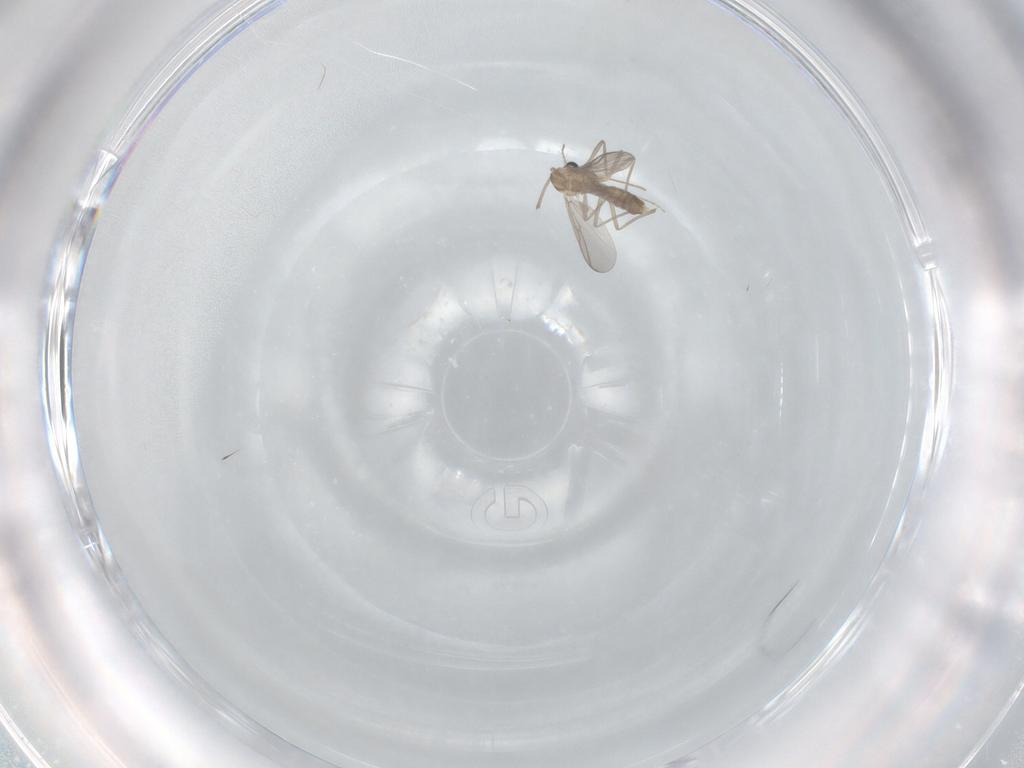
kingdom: Animalia
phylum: Arthropoda
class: Insecta
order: Diptera
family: Chironomidae
